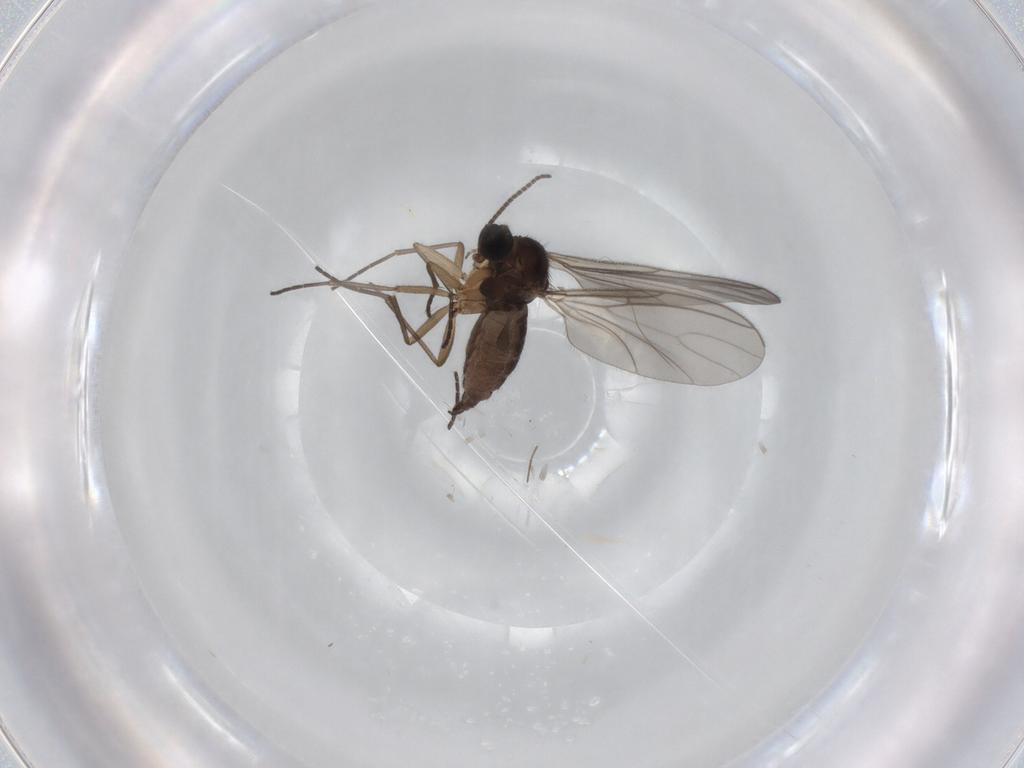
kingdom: Animalia
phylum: Arthropoda
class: Insecta
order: Diptera
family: Sciaridae
